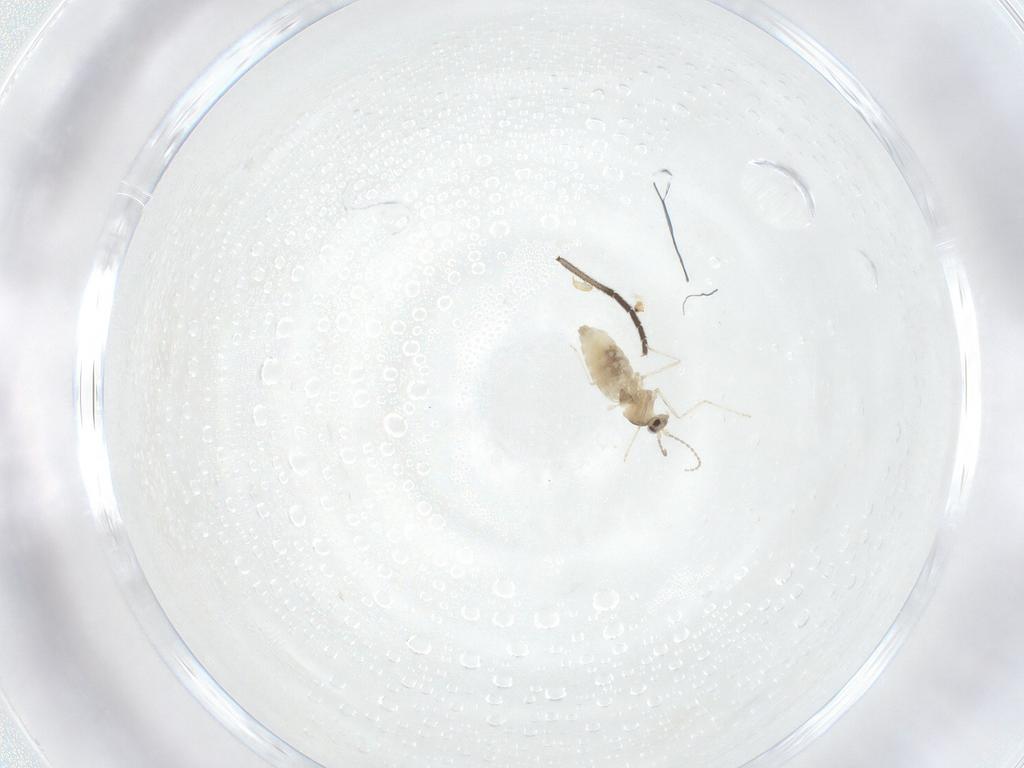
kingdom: Animalia
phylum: Arthropoda
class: Insecta
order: Diptera
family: Cecidomyiidae
